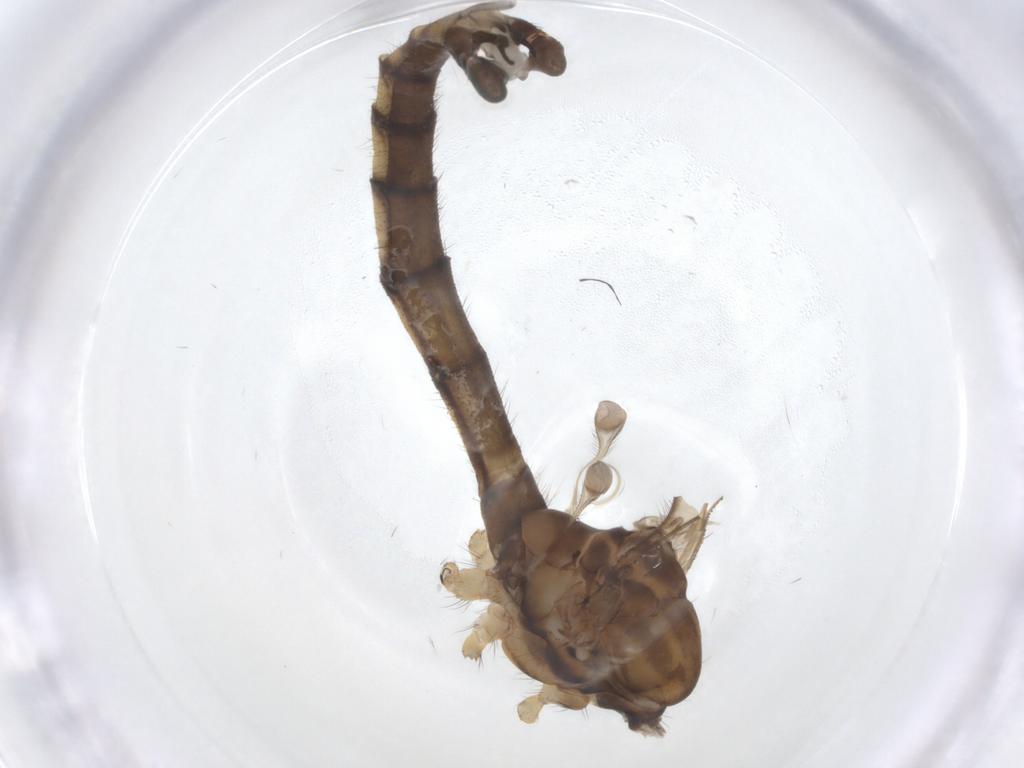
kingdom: Animalia
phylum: Arthropoda
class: Insecta
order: Diptera
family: Limoniidae
